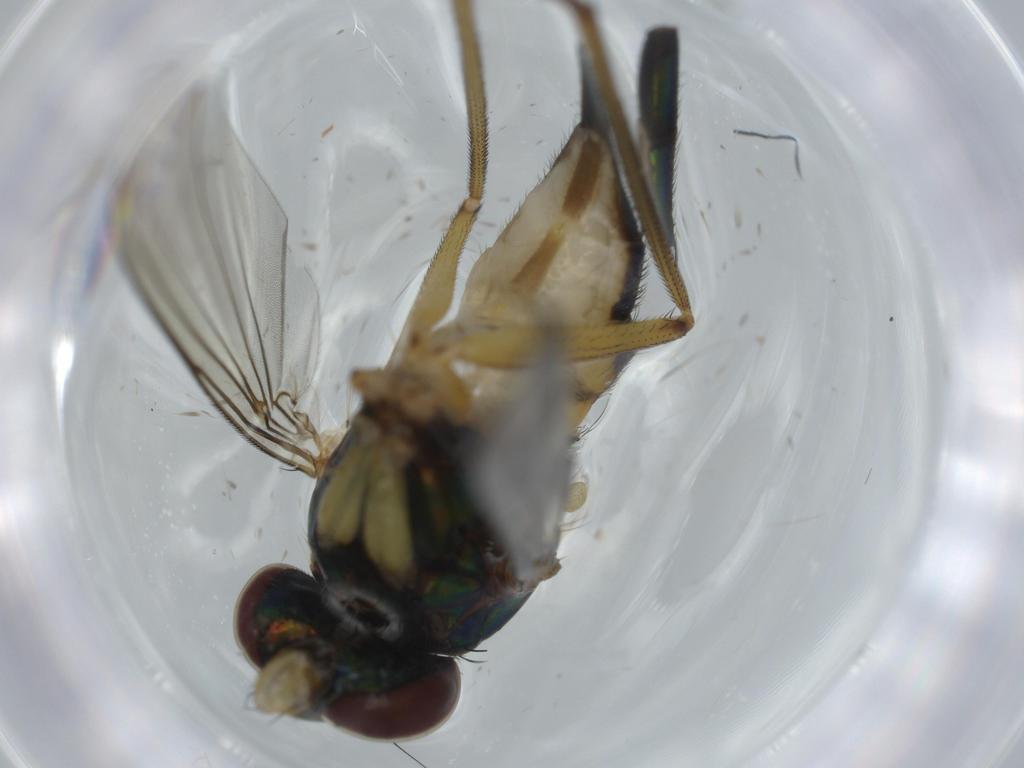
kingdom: Animalia
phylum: Arthropoda
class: Insecta
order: Diptera
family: Dolichopodidae
